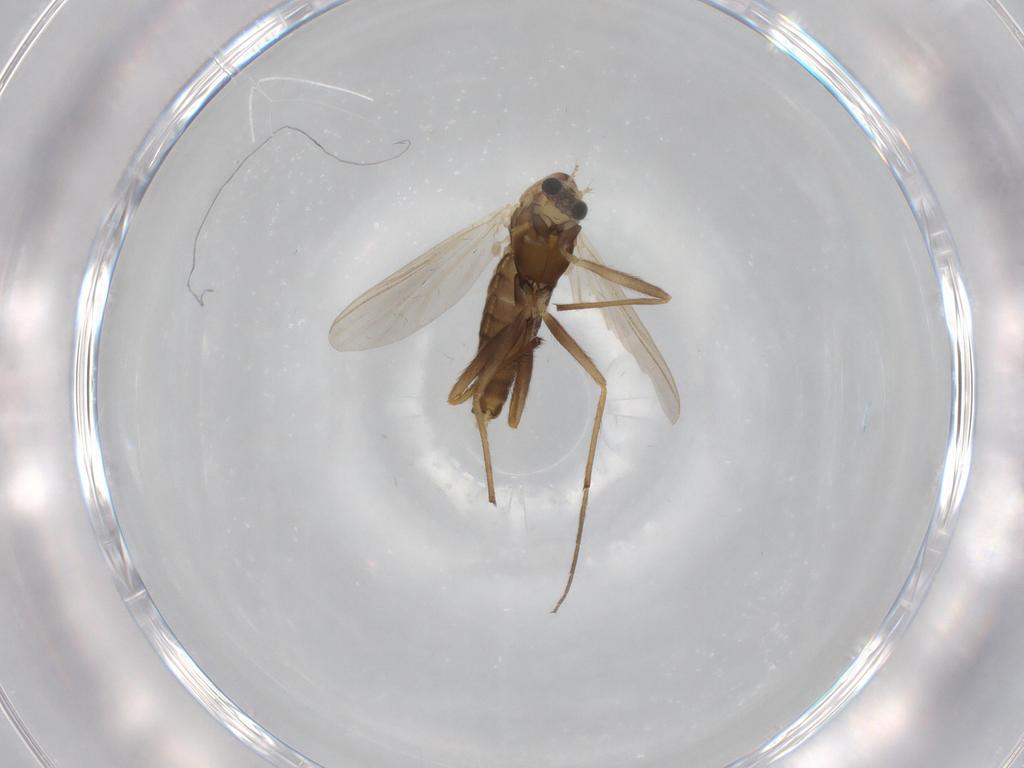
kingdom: Animalia
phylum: Arthropoda
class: Insecta
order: Diptera
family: Chironomidae
